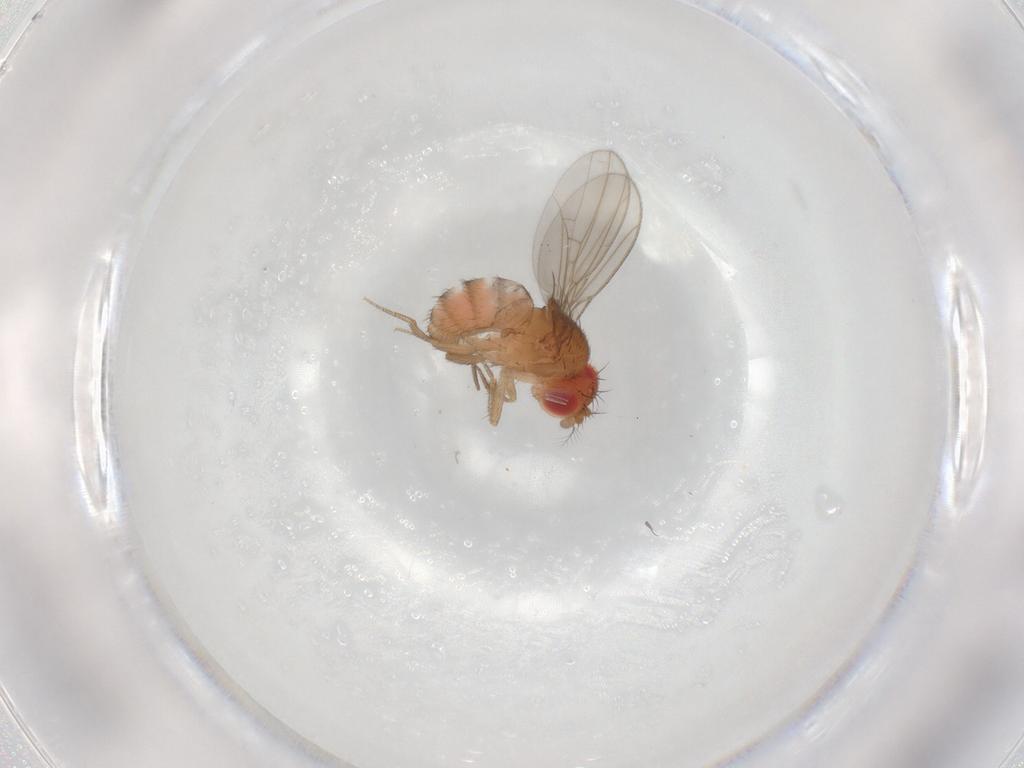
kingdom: Animalia
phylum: Arthropoda
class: Insecta
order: Diptera
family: Drosophilidae
